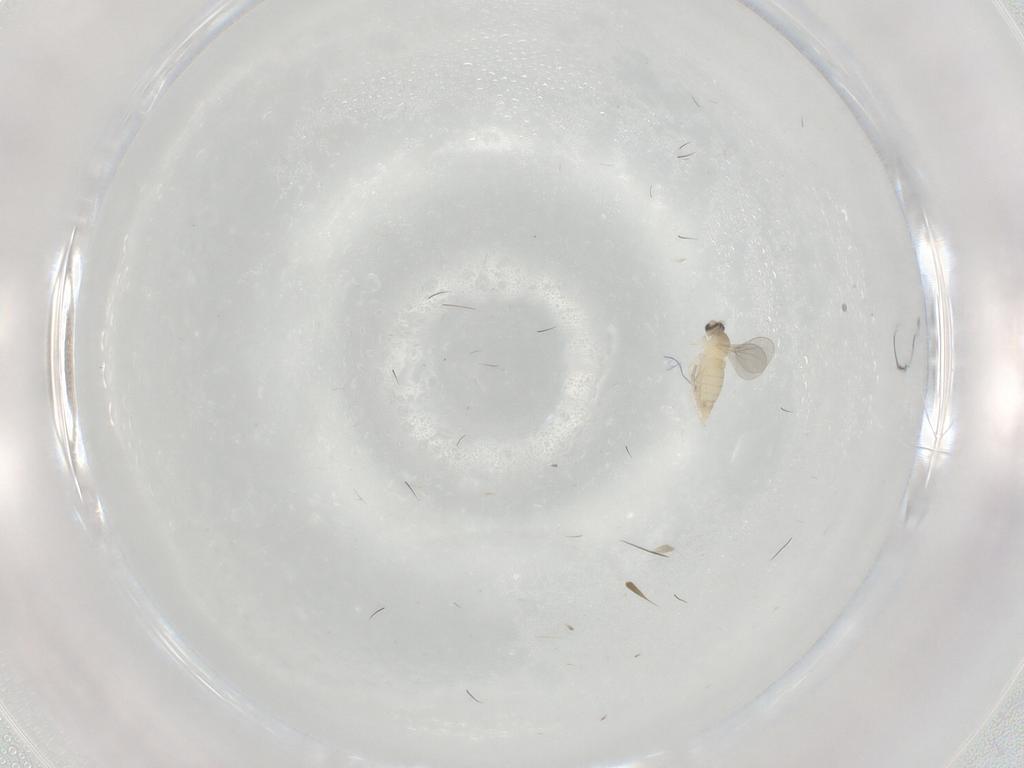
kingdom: Animalia
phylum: Arthropoda
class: Insecta
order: Diptera
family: Cecidomyiidae
